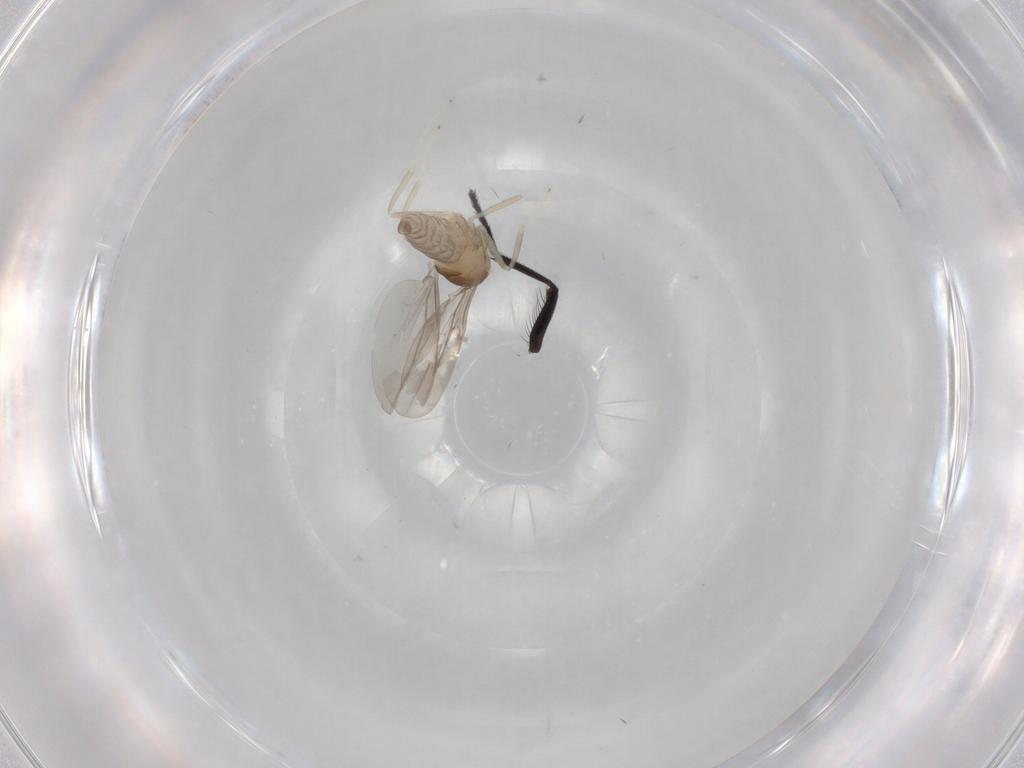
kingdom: Animalia
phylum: Arthropoda
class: Insecta
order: Diptera
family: Cecidomyiidae
